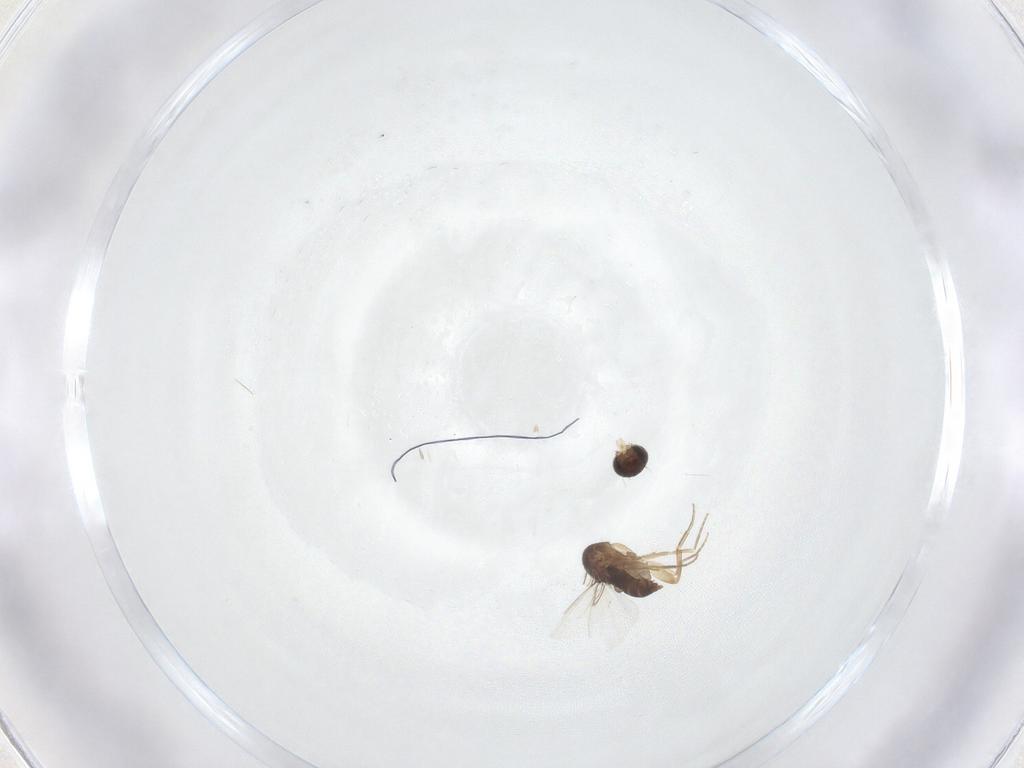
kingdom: Animalia
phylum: Arthropoda
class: Insecta
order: Diptera
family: Phoridae
